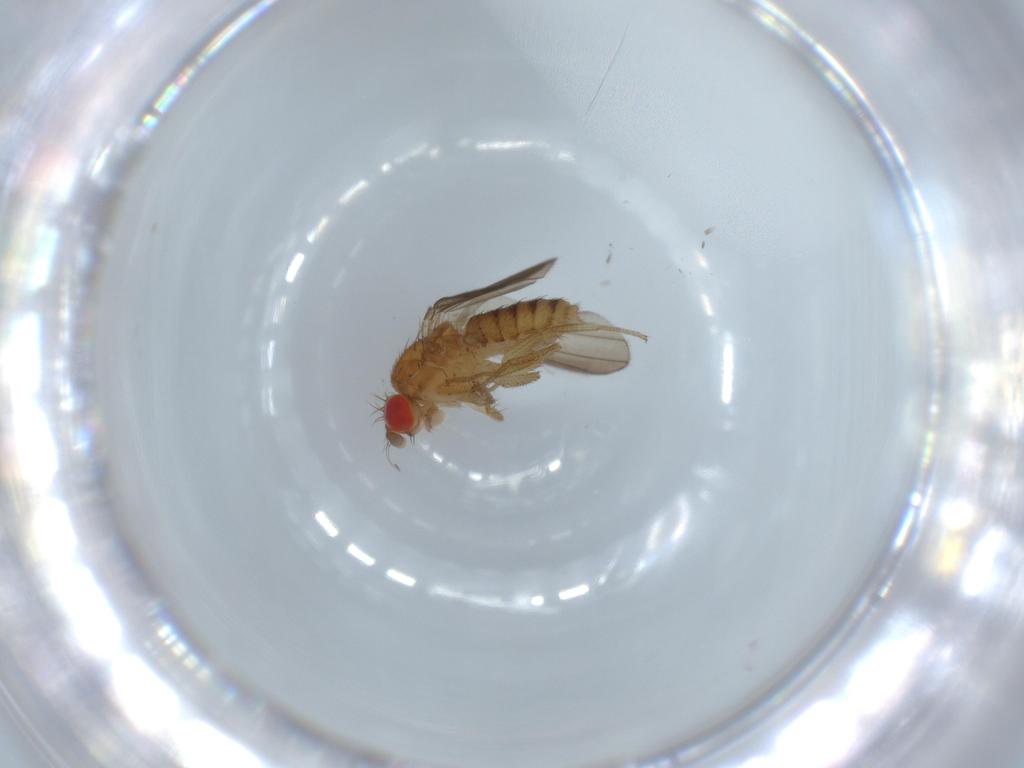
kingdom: Animalia
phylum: Arthropoda
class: Insecta
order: Diptera
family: Drosophilidae
